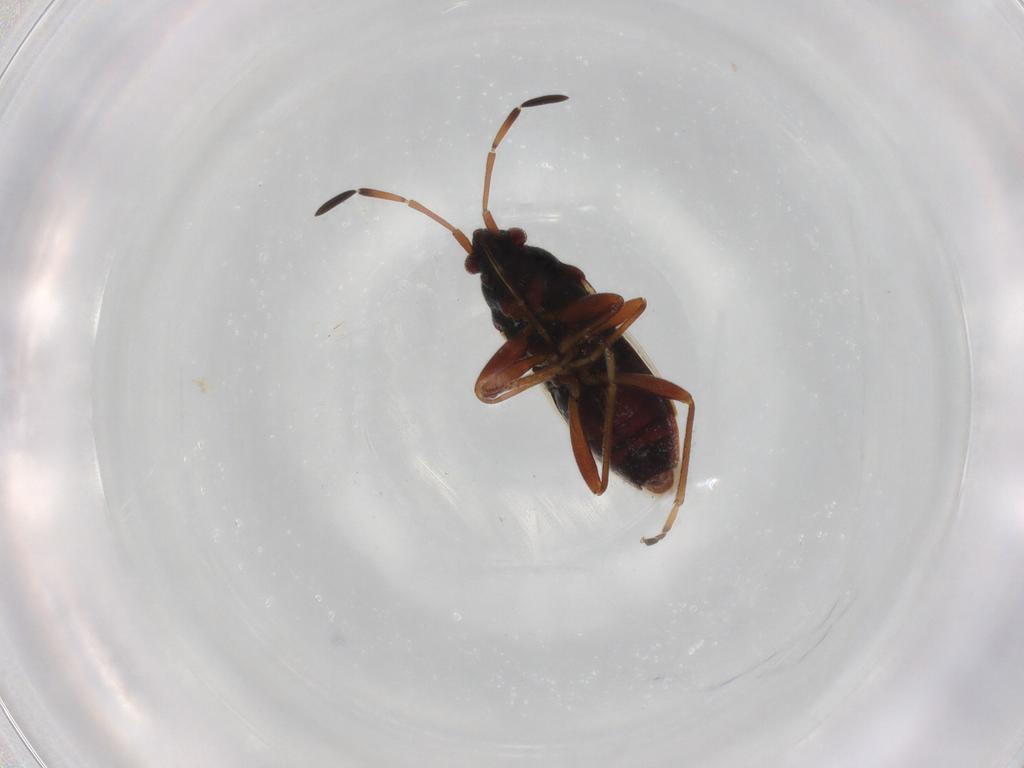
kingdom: Animalia
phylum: Arthropoda
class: Insecta
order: Hemiptera
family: Rhyparochromidae
